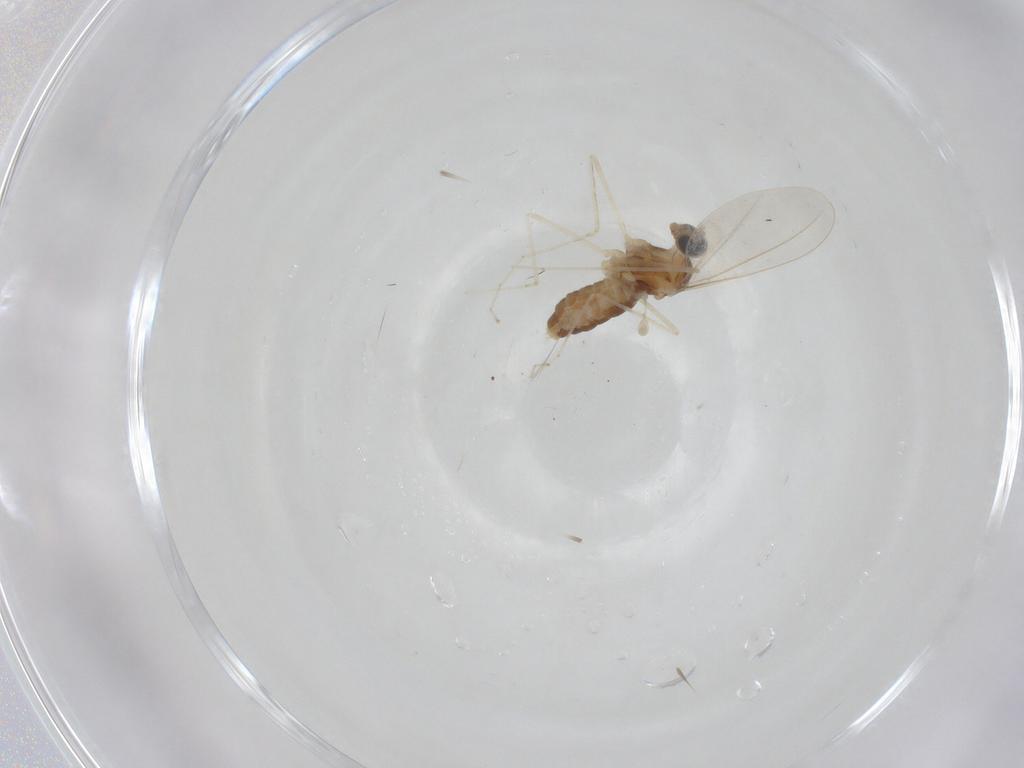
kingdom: Animalia
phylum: Arthropoda
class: Insecta
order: Diptera
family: Cecidomyiidae
